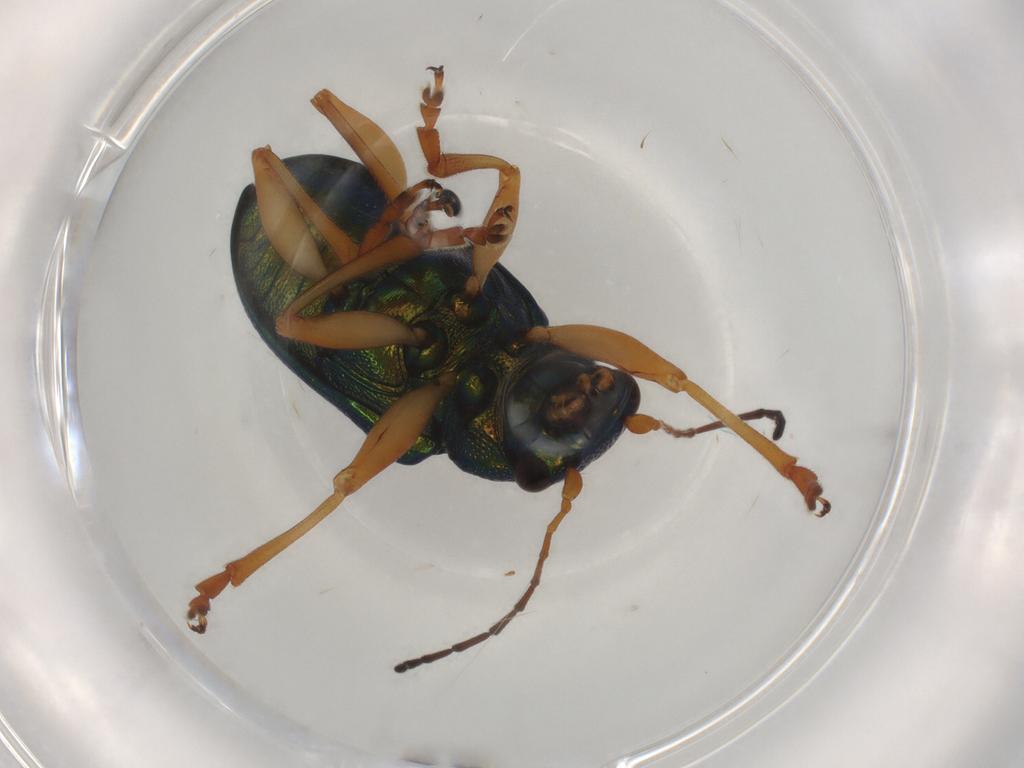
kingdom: Animalia
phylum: Arthropoda
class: Insecta
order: Coleoptera
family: Chrysomelidae
